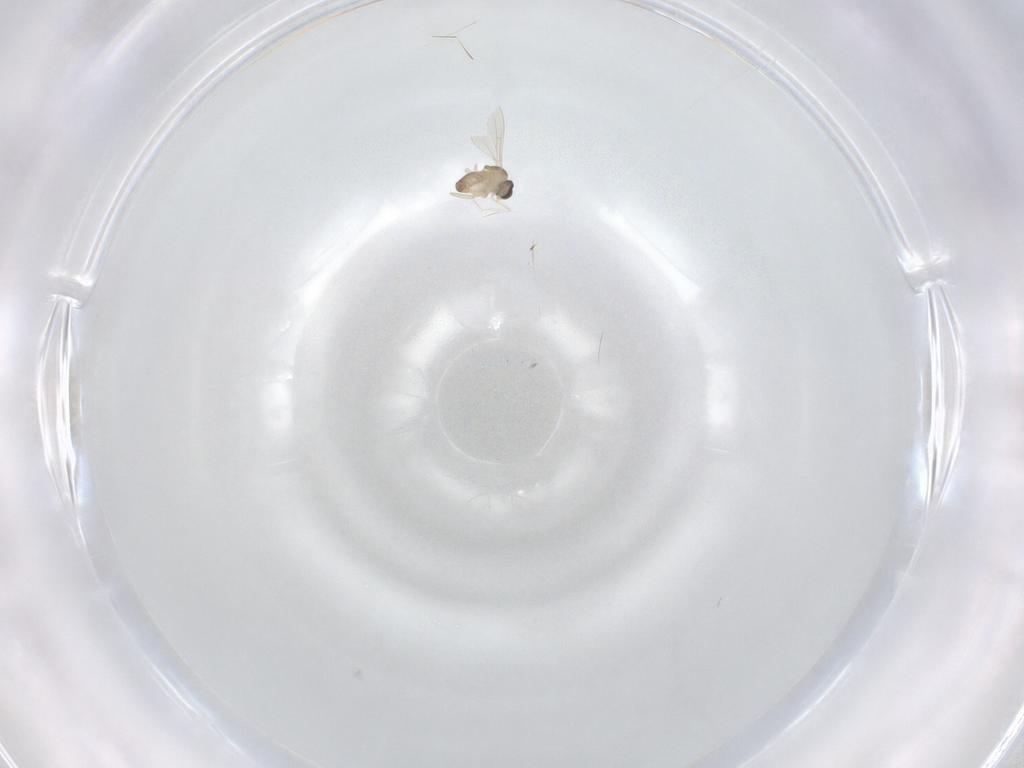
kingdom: Animalia
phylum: Arthropoda
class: Insecta
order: Diptera
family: Cecidomyiidae
